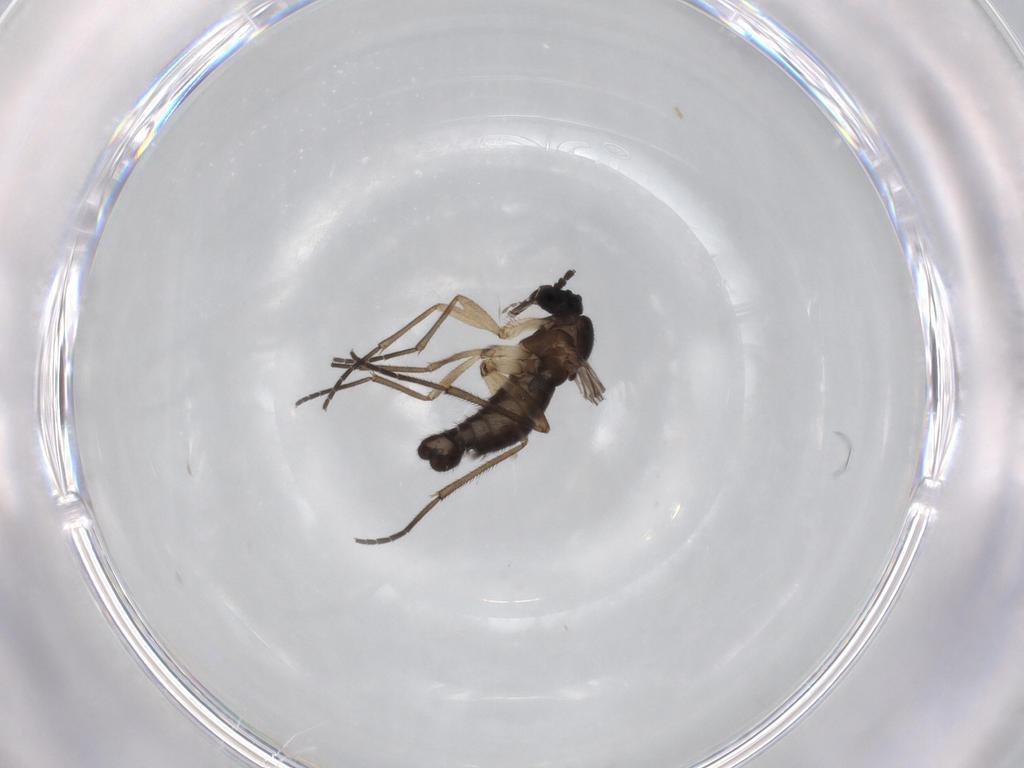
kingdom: Animalia
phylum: Arthropoda
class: Insecta
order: Diptera
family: Sciaridae
